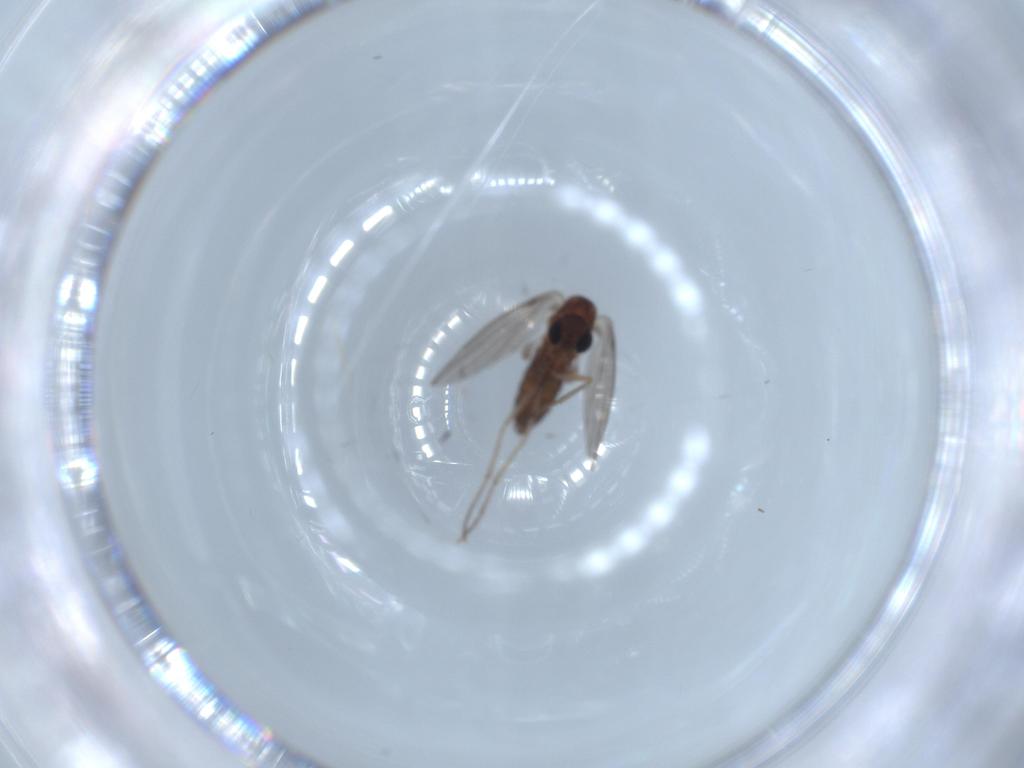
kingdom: Animalia
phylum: Arthropoda
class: Insecta
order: Diptera
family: Psychodidae
